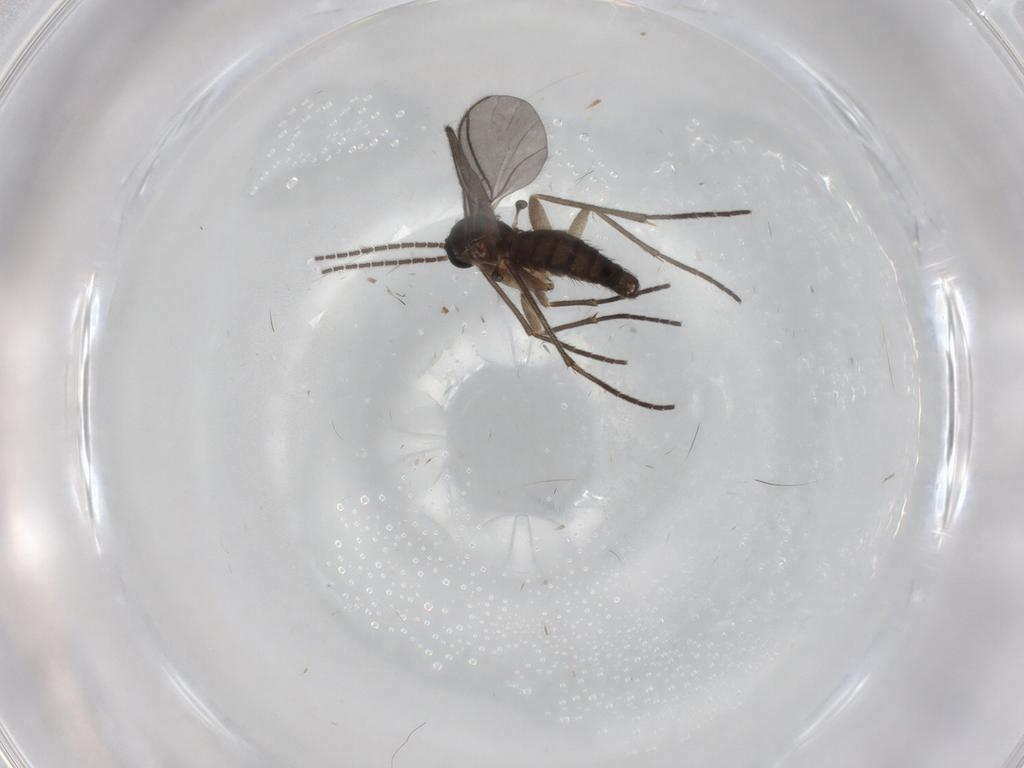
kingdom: Animalia
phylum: Arthropoda
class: Insecta
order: Diptera
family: Sciaridae
